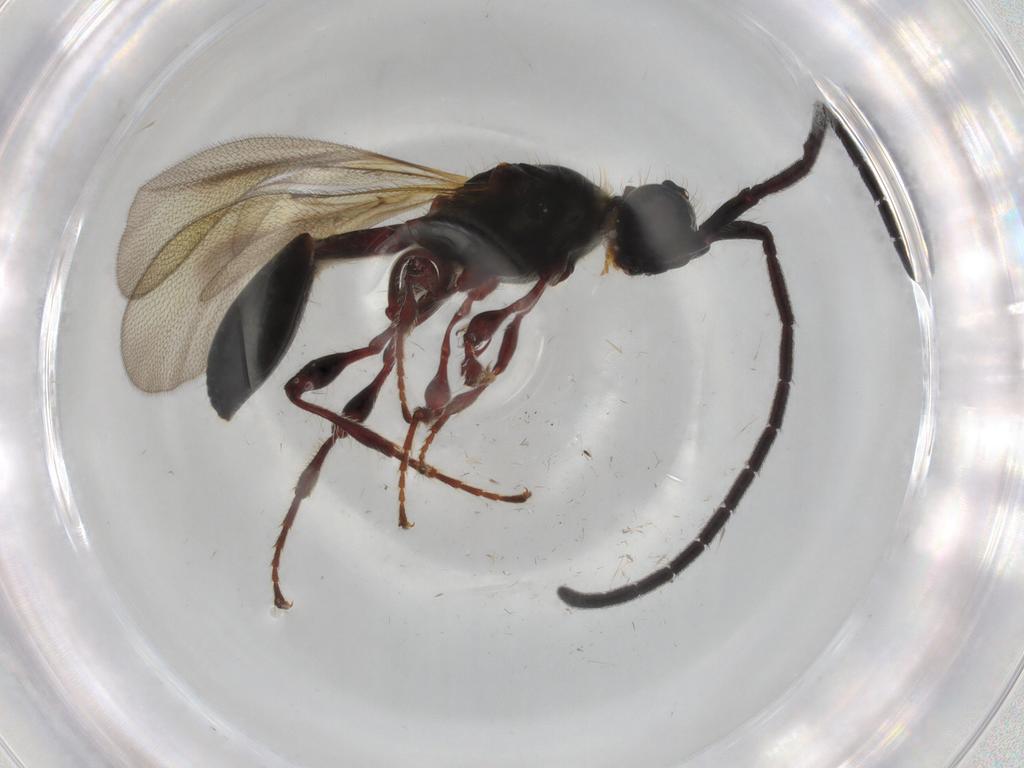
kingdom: Animalia
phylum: Arthropoda
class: Insecta
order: Hymenoptera
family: Diapriidae
